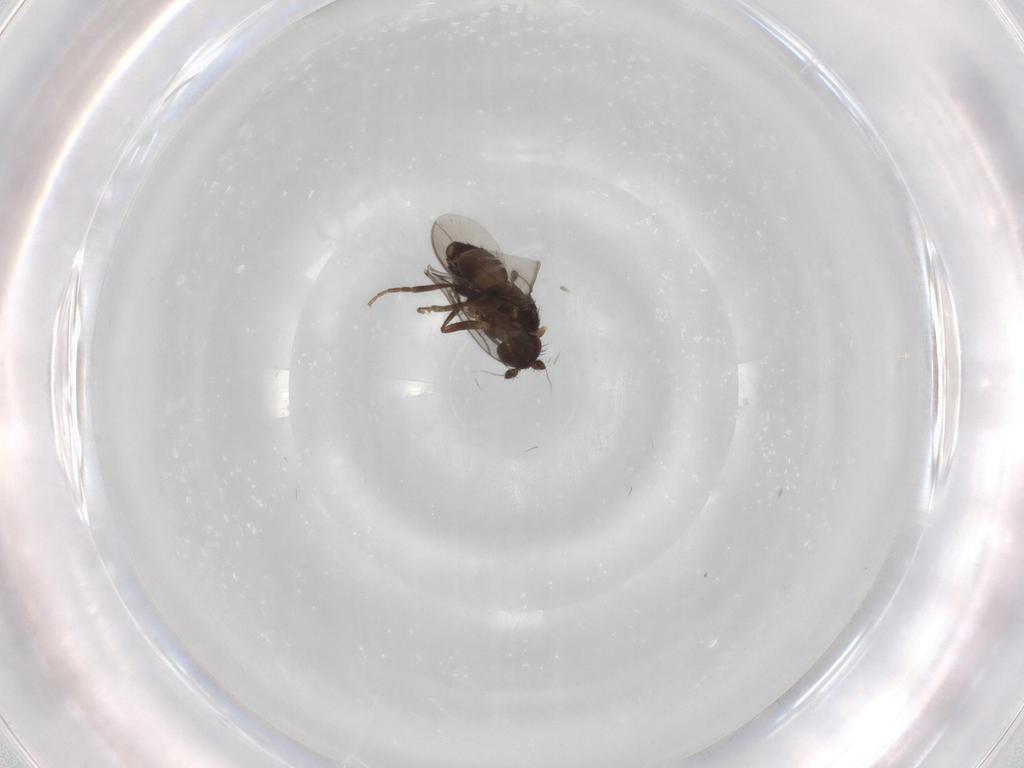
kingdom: Animalia
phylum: Arthropoda
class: Insecta
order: Diptera
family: Sciaridae
